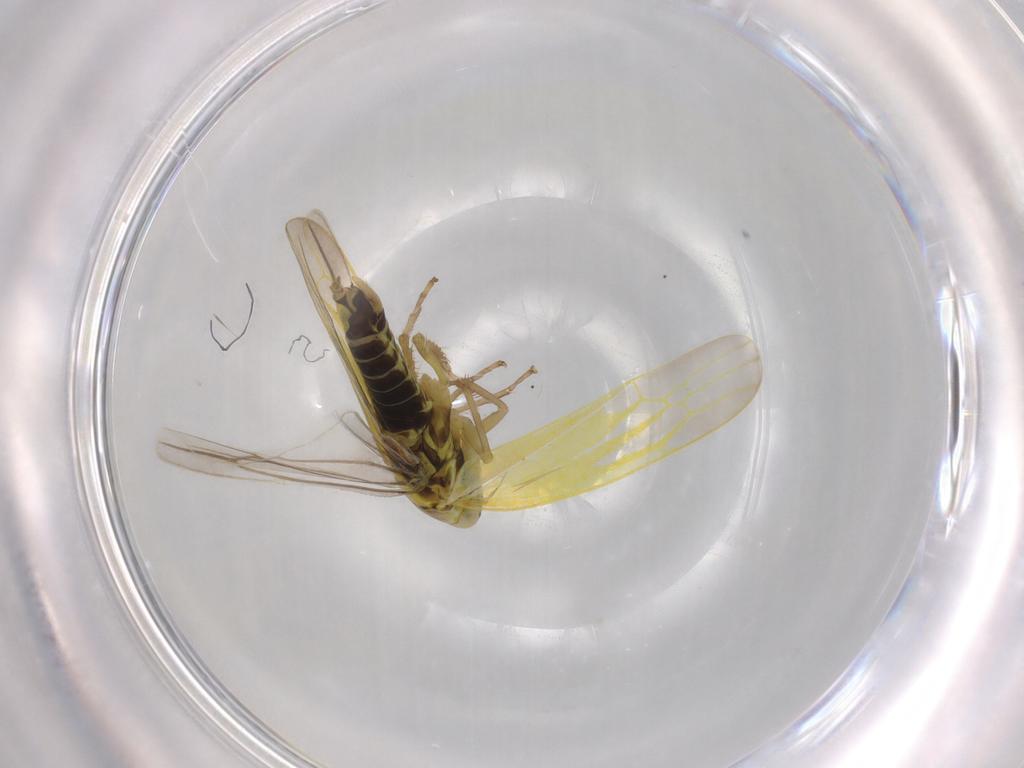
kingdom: Animalia
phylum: Arthropoda
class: Insecta
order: Hemiptera
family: Cicadellidae
